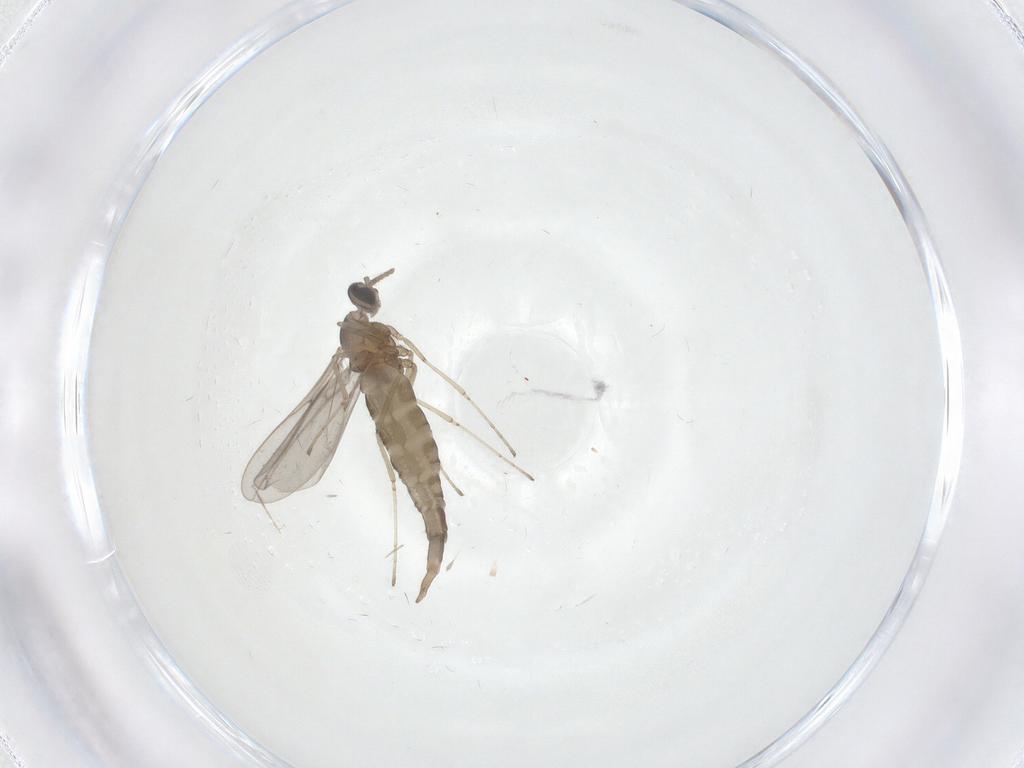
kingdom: Animalia
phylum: Arthropoda
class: Insecta
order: Diptera
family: Cecidomyiidae
